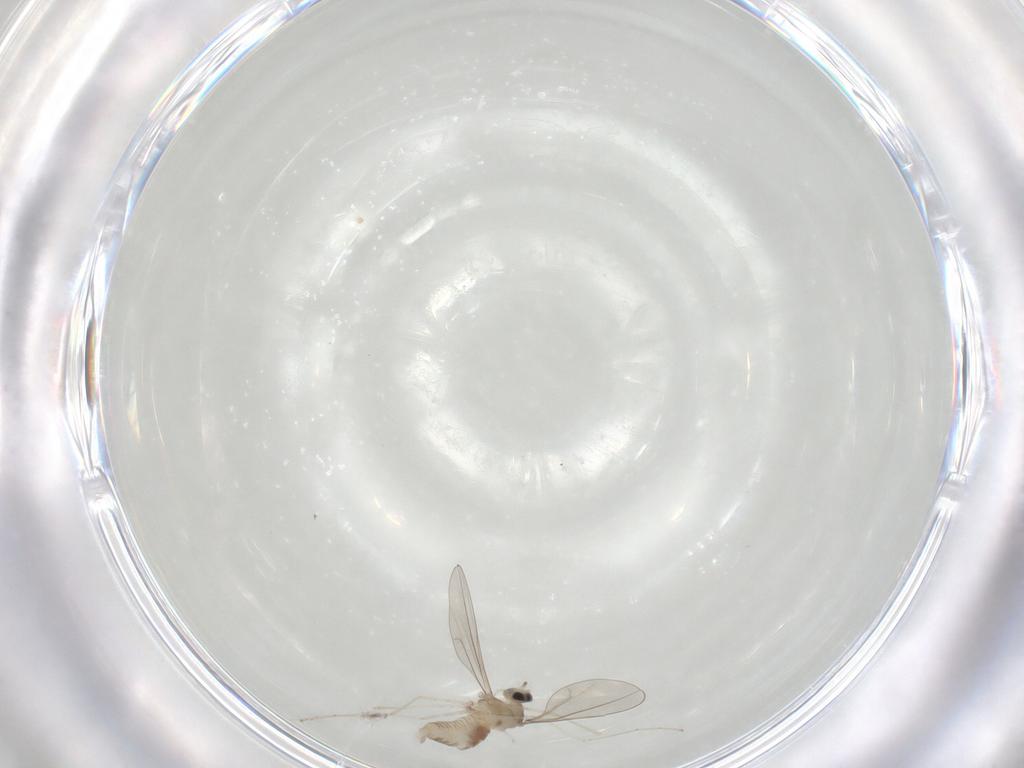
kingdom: Animalia
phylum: Arthropoda
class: Insecta
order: Diptera
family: Cecidomyiidae
